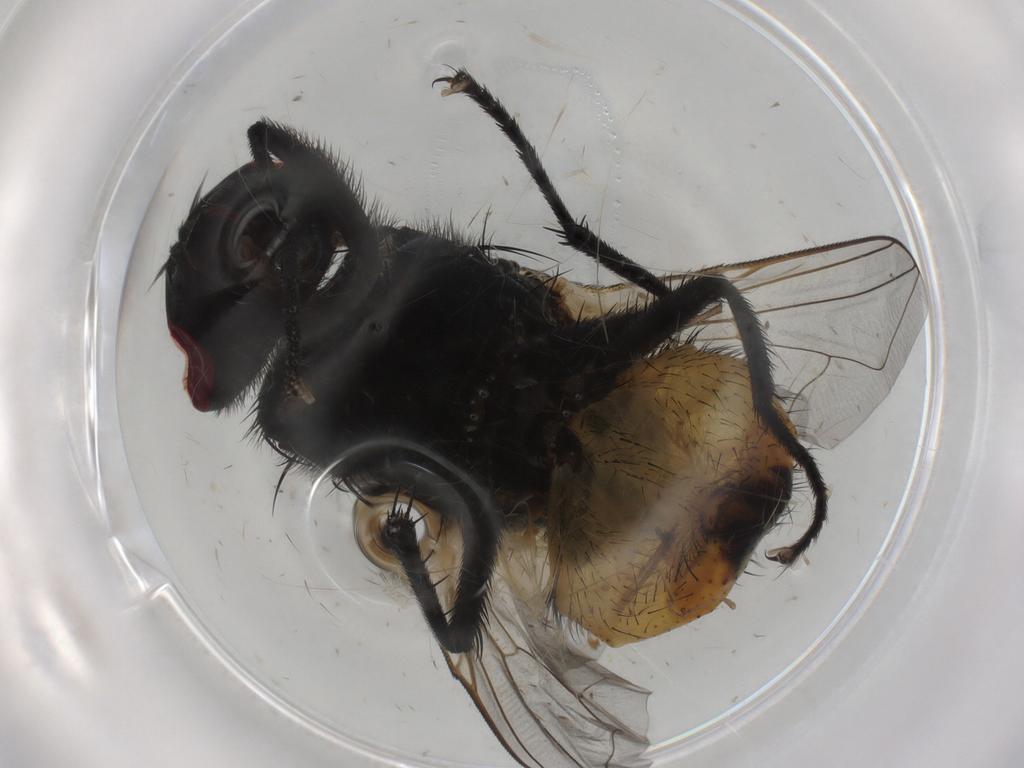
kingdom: Animalia
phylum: Arthropoda
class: Insecta
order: Diptera
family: Muscidae
